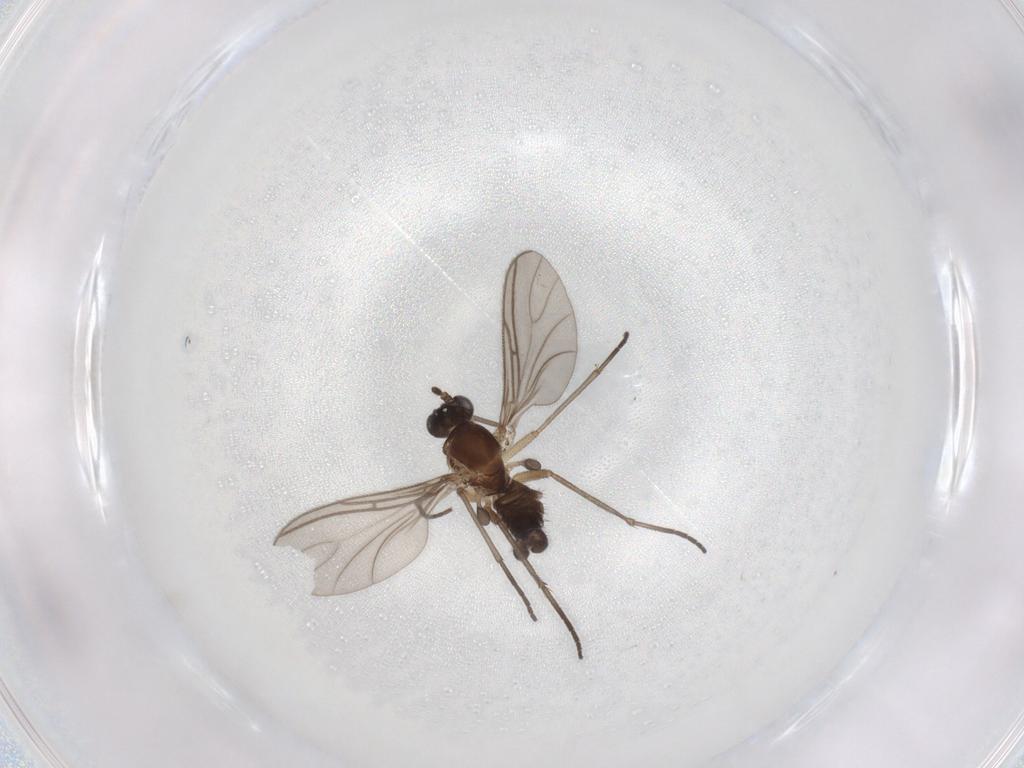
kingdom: Animalia
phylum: Arthropoda
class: Insecta
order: Diptera
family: Sciaridae
